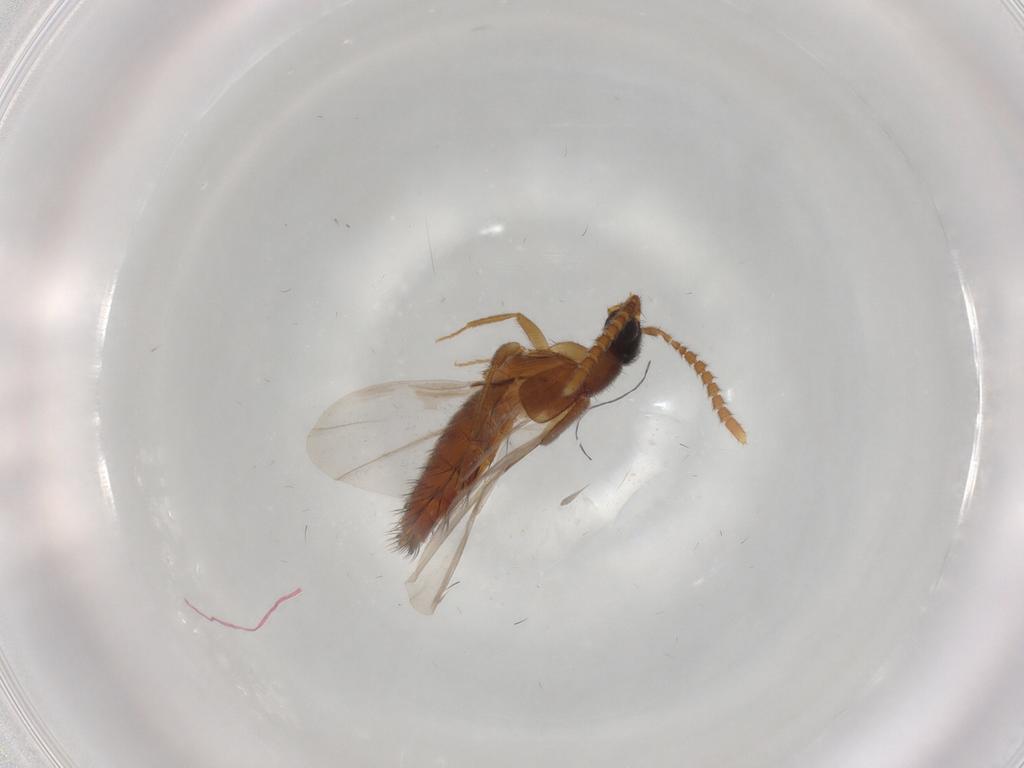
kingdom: Animalia
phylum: Arthropoda
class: Insecta
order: Coleoptera
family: Staphylinidae
